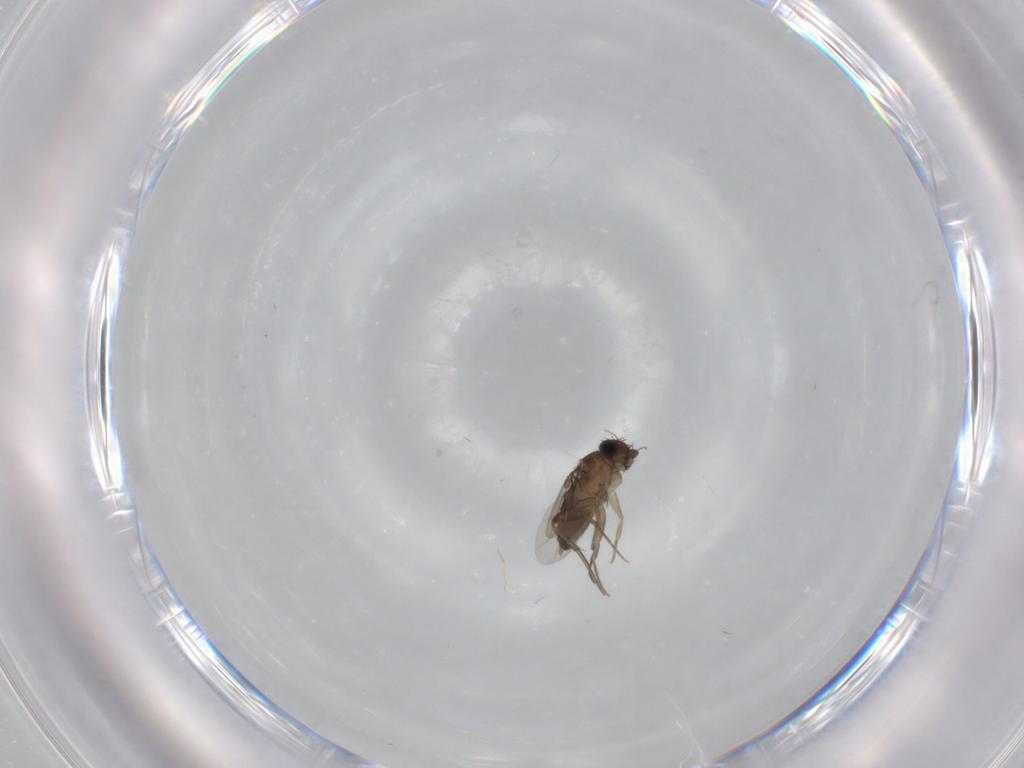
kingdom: Animalia
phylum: Arthropoda
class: Insecta
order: Diptera
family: Phoridae
